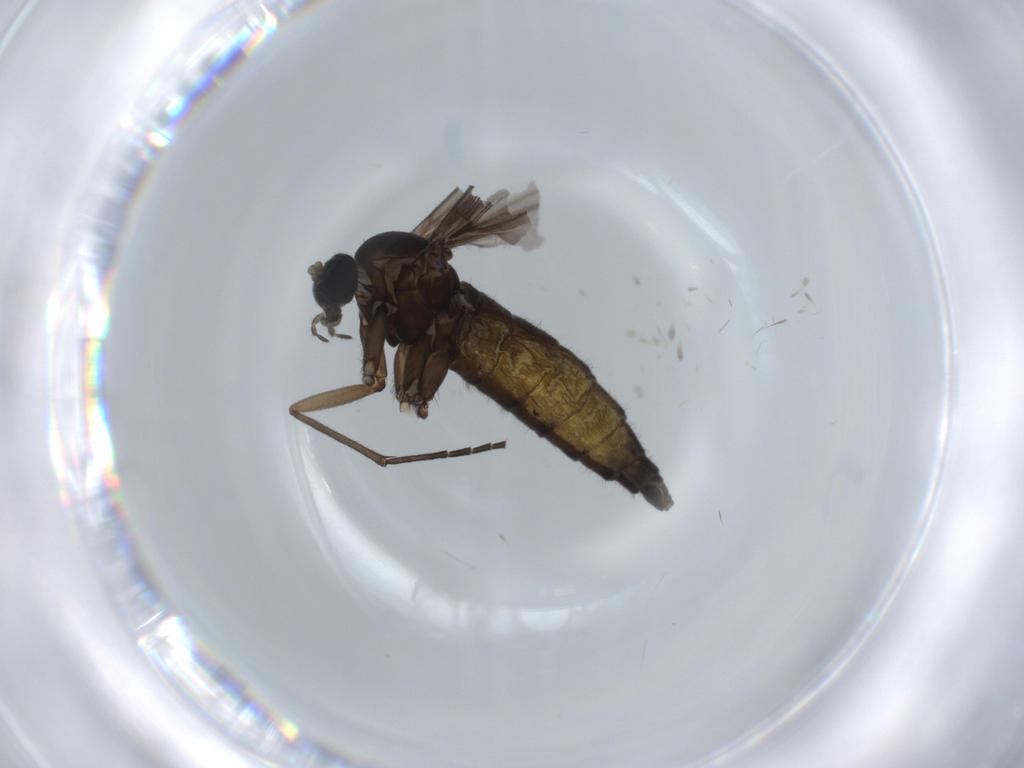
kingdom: Animalia
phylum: Arthropoda
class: Insecta
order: Diptera
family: Sciaridae
